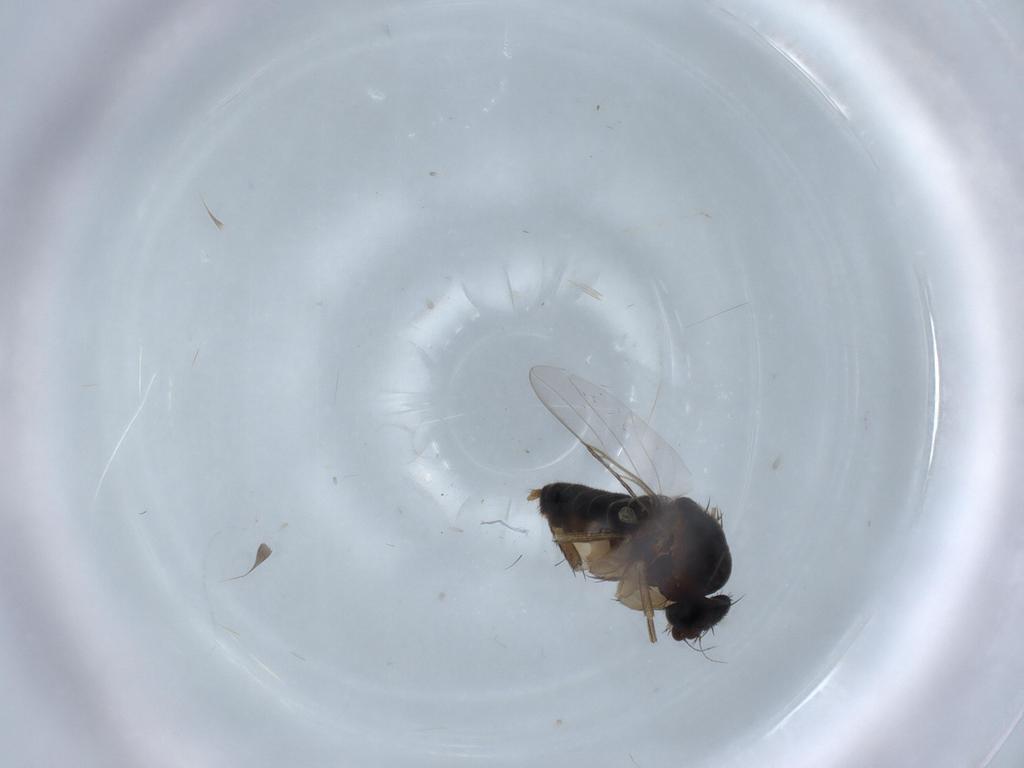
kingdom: Animalia
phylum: Arthropoda
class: Insecta
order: Diptera
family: Phoridae
